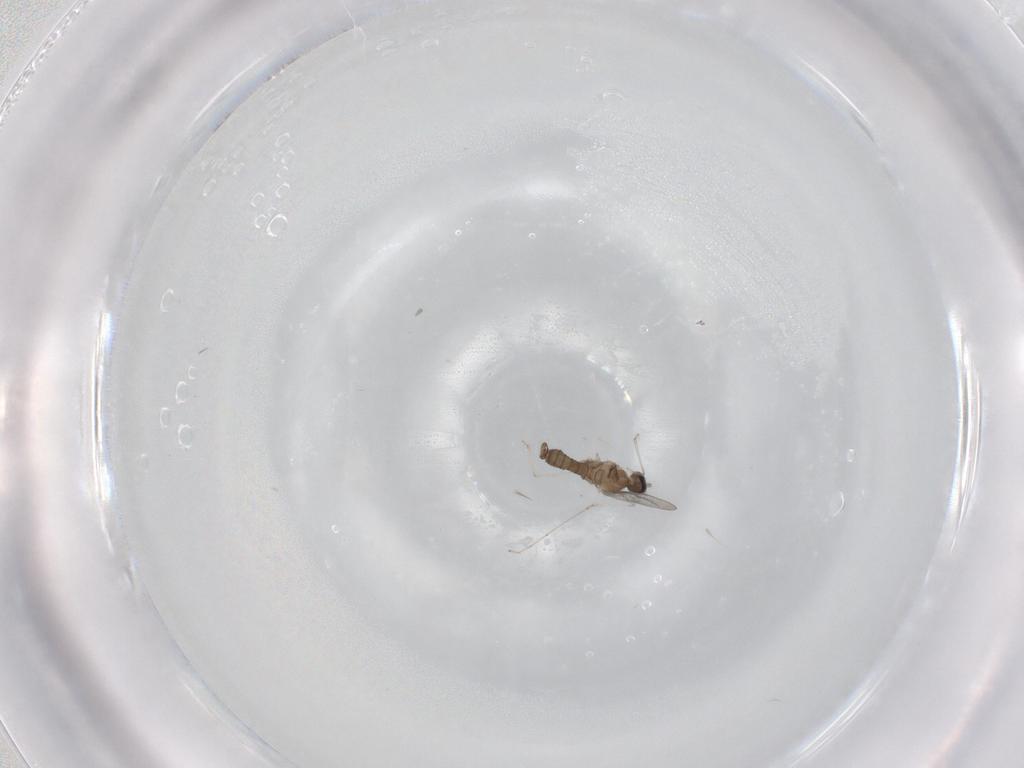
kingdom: Animalia
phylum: Arthropoda
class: Insecta
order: Diptera
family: Cecidomyiidae
